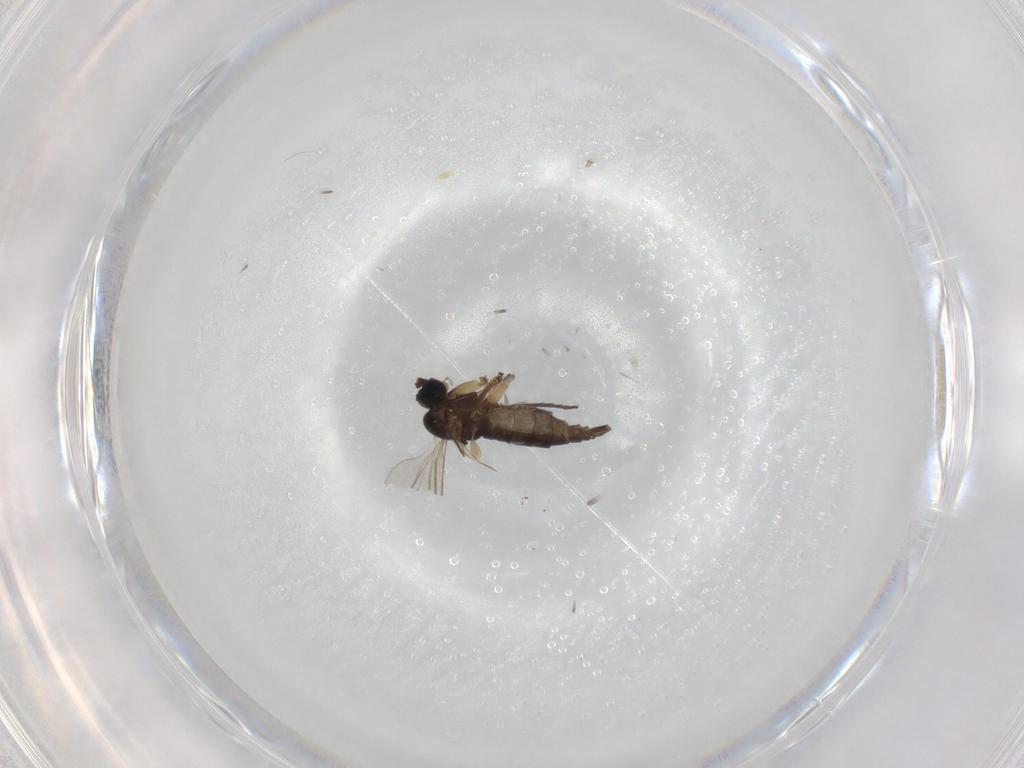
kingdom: Animalia
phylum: Arthropoda
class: Insecta
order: Diptera
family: Sciaridae
